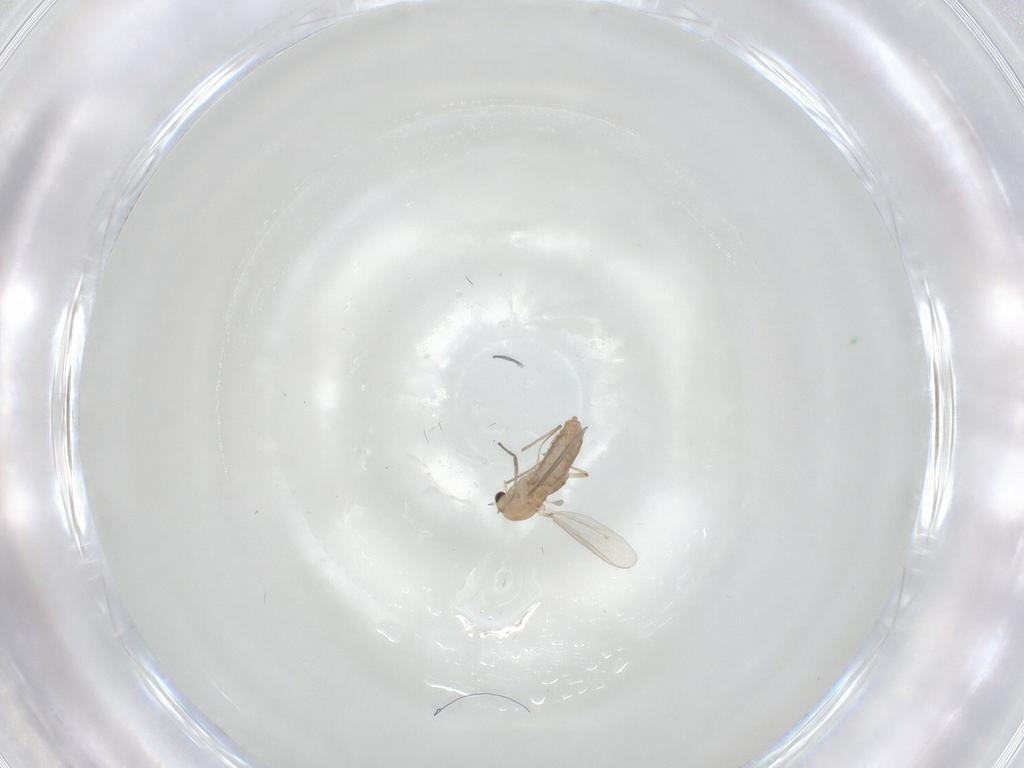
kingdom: Animalia
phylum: Arthropoda
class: Insecta
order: Diptera
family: Chironomidae
